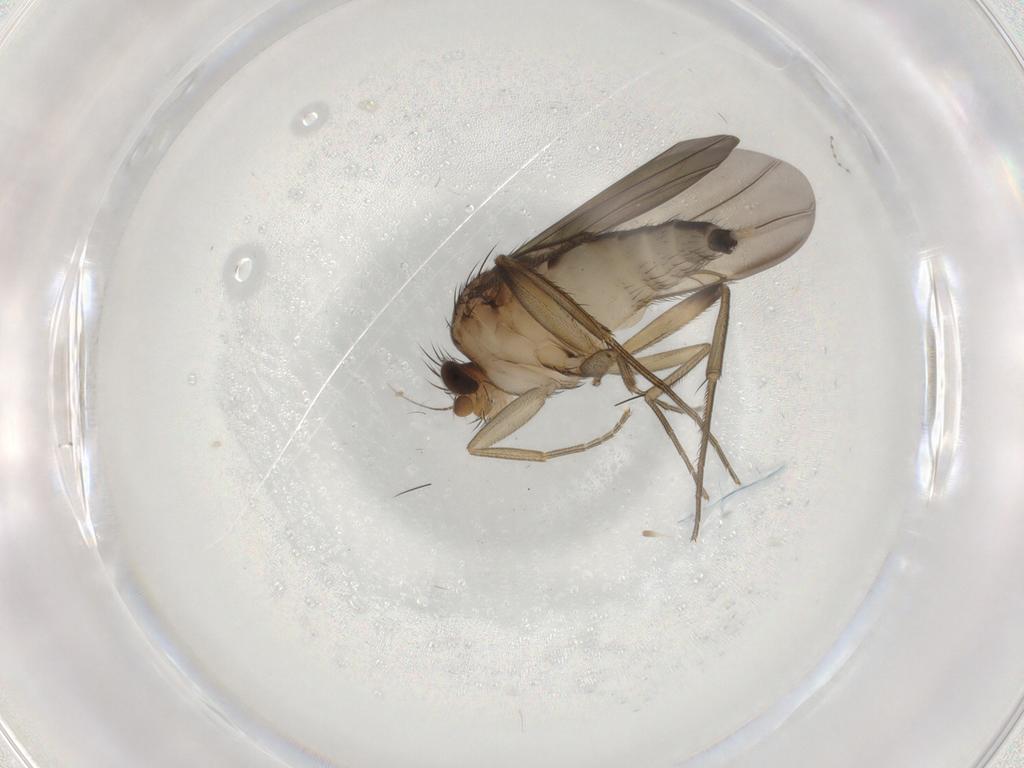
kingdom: Animalia
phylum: Arthropoda
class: Insecta
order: Diptera
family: Phoridae
